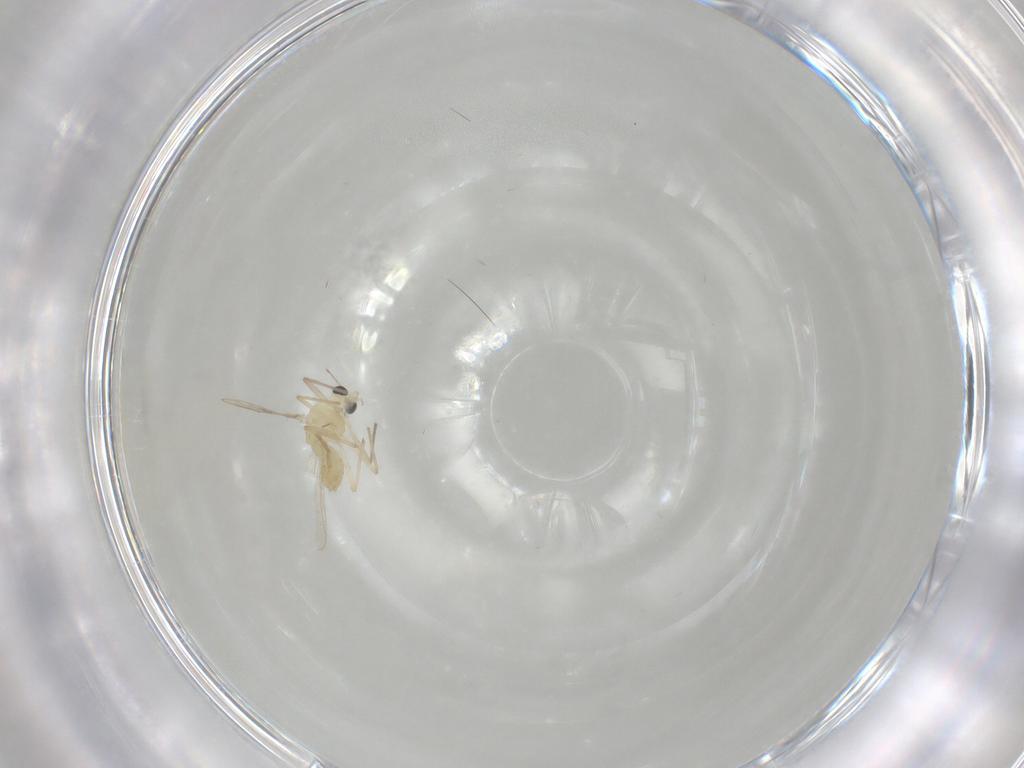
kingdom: Animalia
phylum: Arthropoda
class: Insecta
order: Diptera
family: Chironomidae
